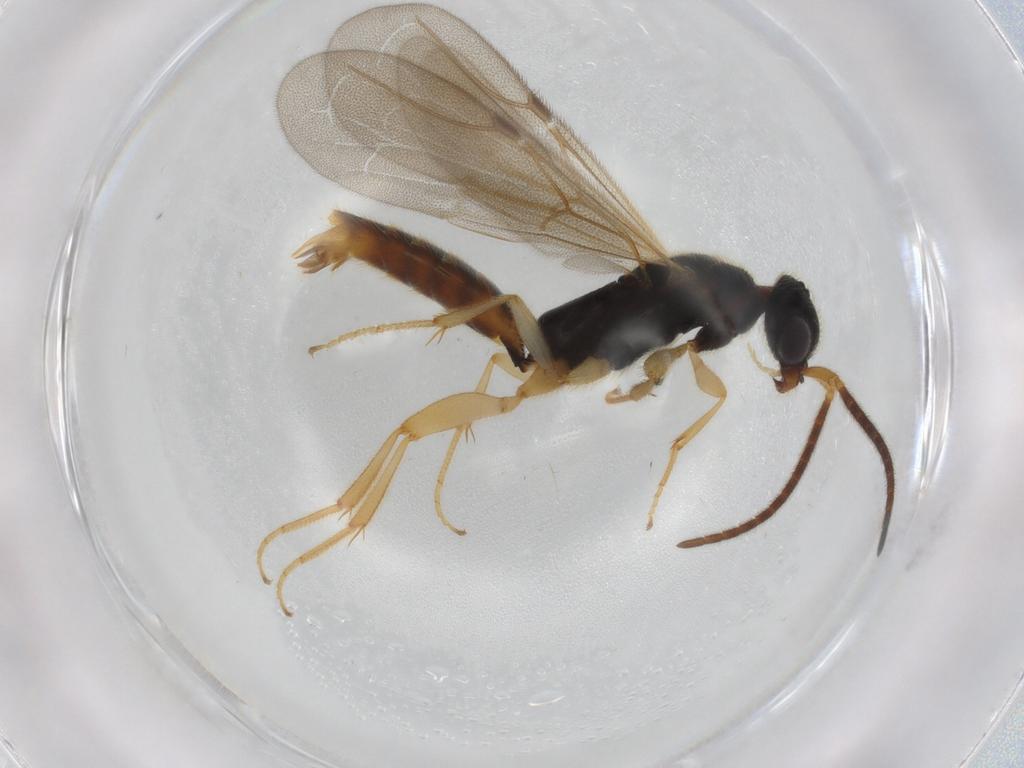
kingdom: Animalia
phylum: Arthropoda
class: Insecta
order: Hymenoptera
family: Bethylidae
